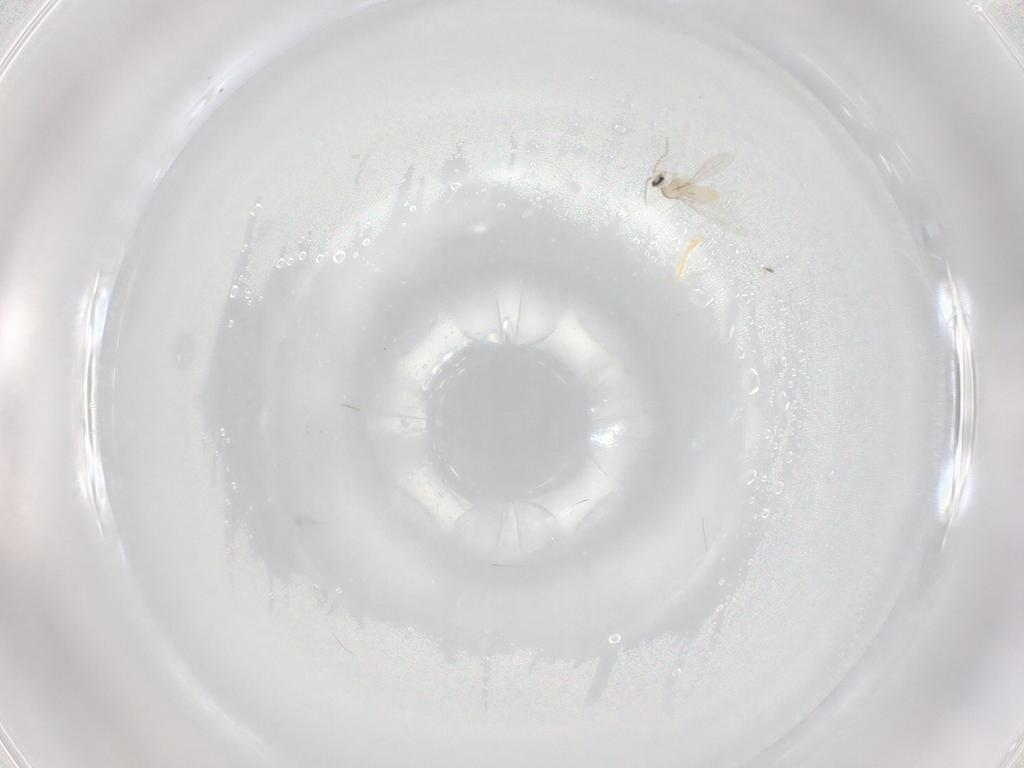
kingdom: Animalia
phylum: Arthropoda
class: Insecta
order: Diptera
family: Cecidomyiidae
